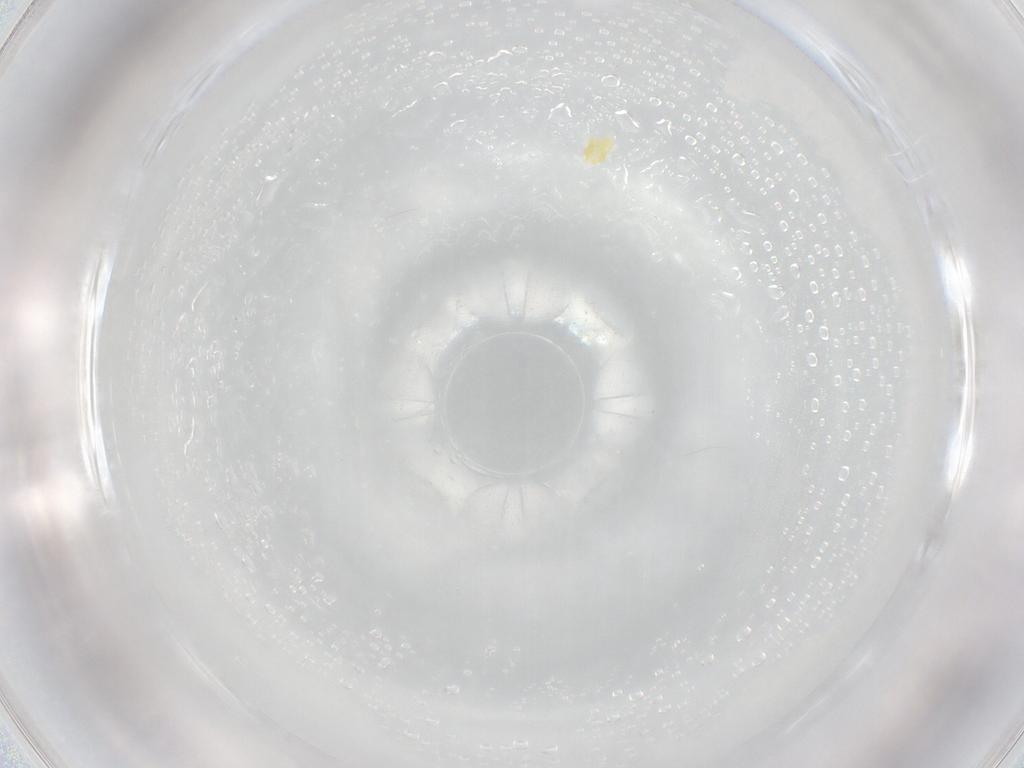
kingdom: Animalia
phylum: Arthropoda
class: Arachnida
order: Trombidiformes
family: Eupodidae
